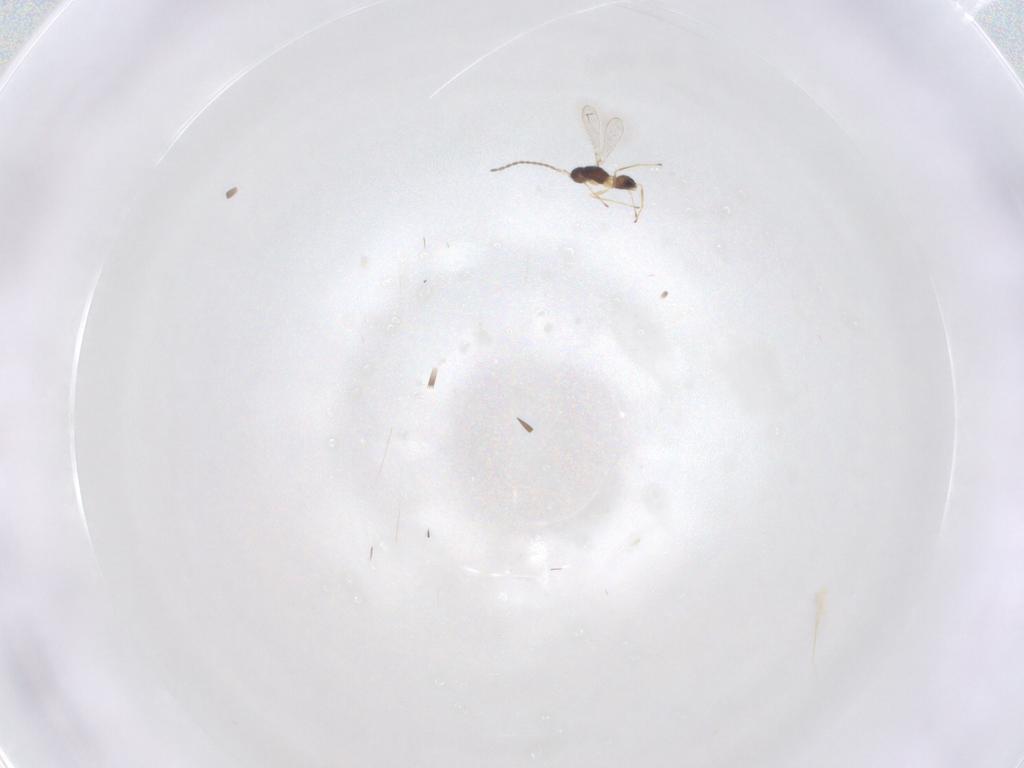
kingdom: Animalia
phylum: Arthropoda
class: Insecta
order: Hymenoptera
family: Mymaridae
